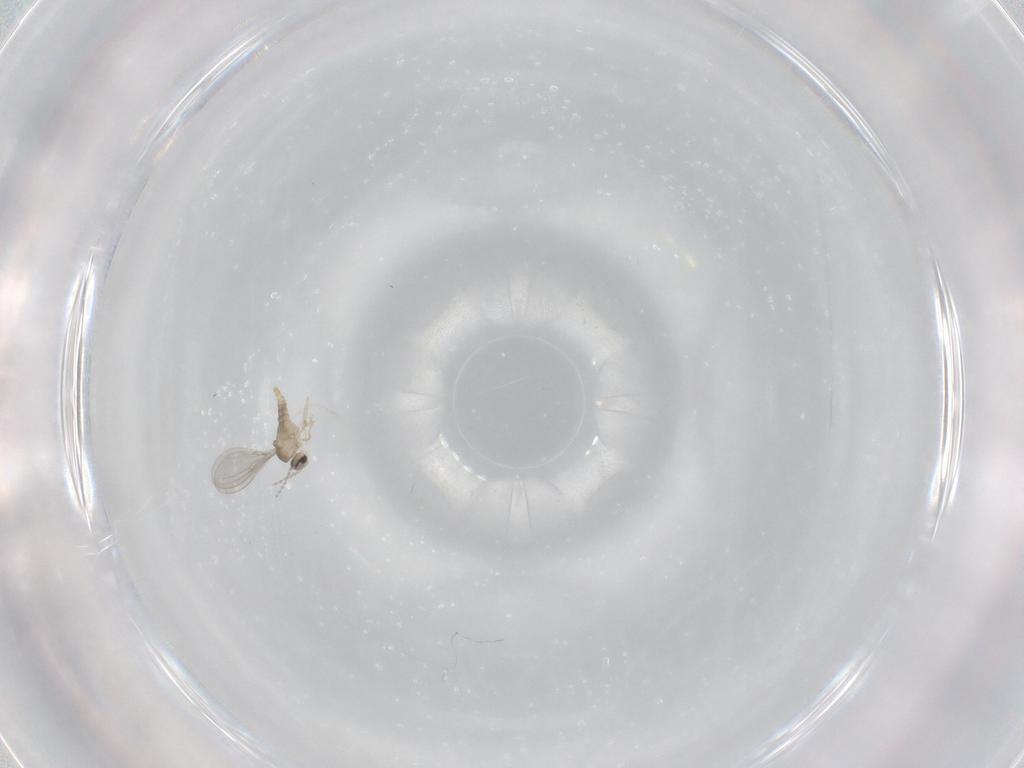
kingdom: Animalia
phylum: Arthropoda
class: Insecta
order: Diptera
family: Cecidomyiidae
